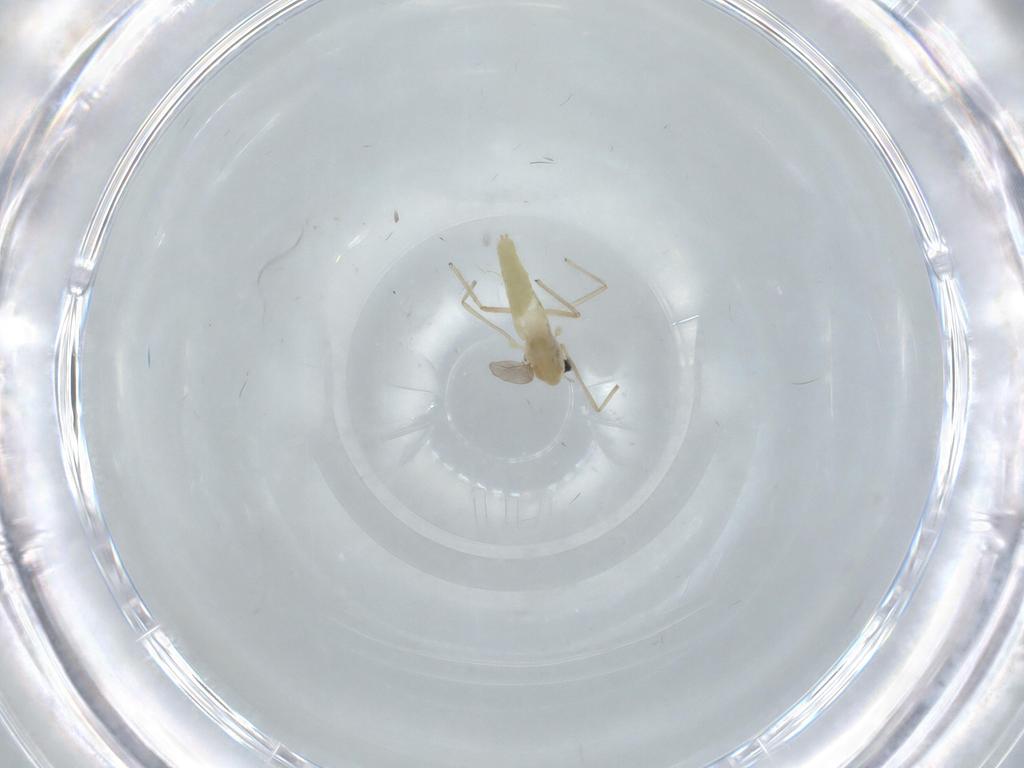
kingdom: Animalia
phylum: Arthropoda
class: Insecta
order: Diptera
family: Chironomidae
